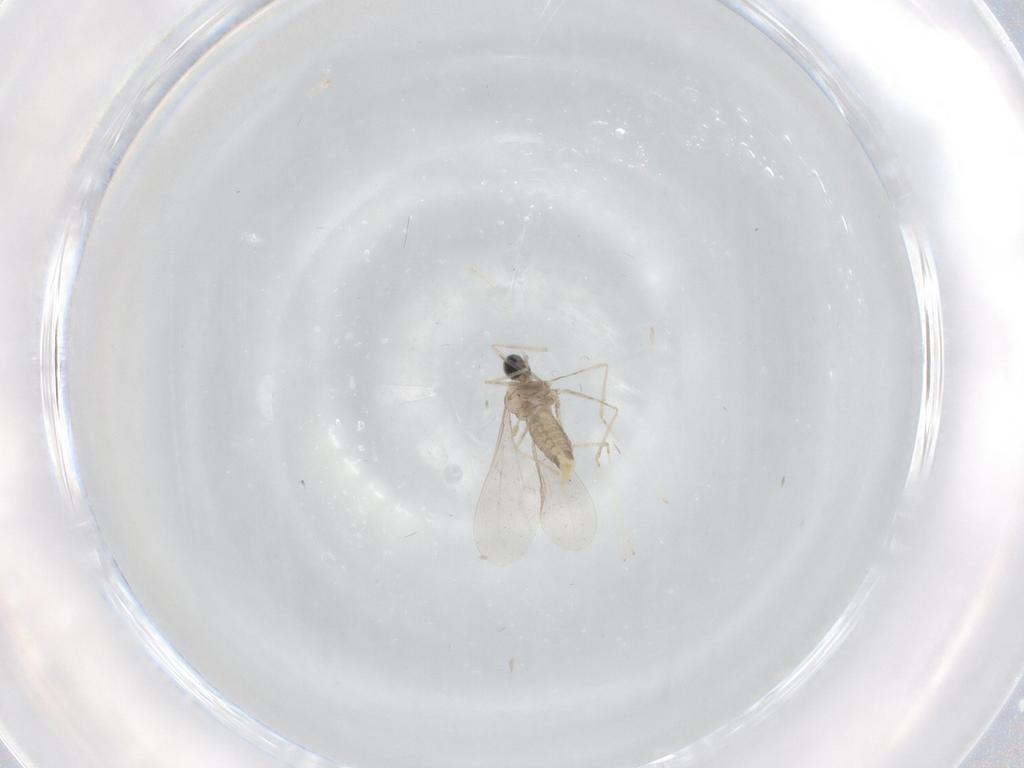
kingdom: Animalia
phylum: Arthropoda
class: Insecta
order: Diptera
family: Cecidomyiidae
